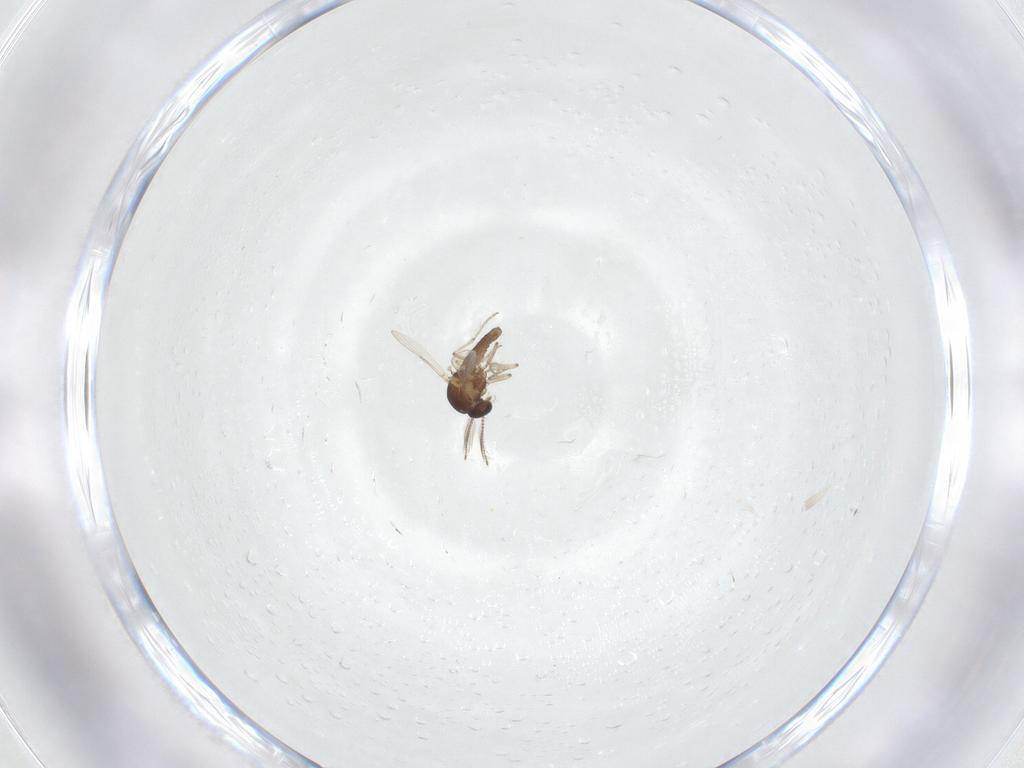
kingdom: Animalia
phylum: Arthropoda
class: Insecta
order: Diptera
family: Ceratopogonidae
